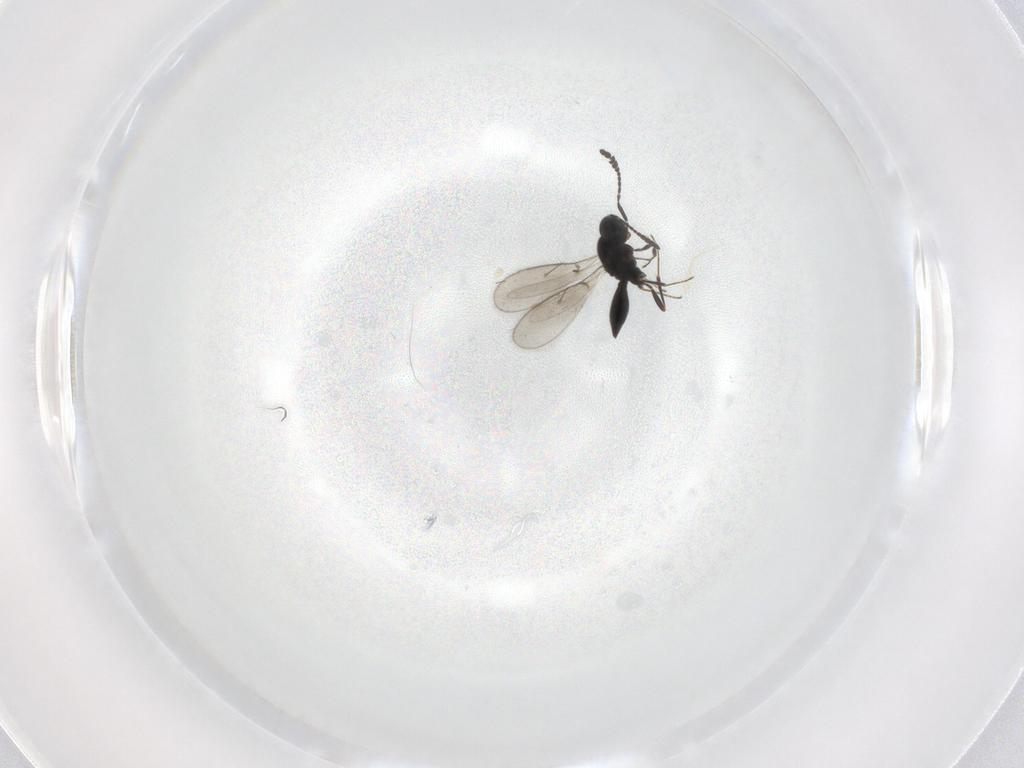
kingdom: Animalia
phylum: Arthropoda
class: Insecta
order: Hymenoptera
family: Scelionidae
